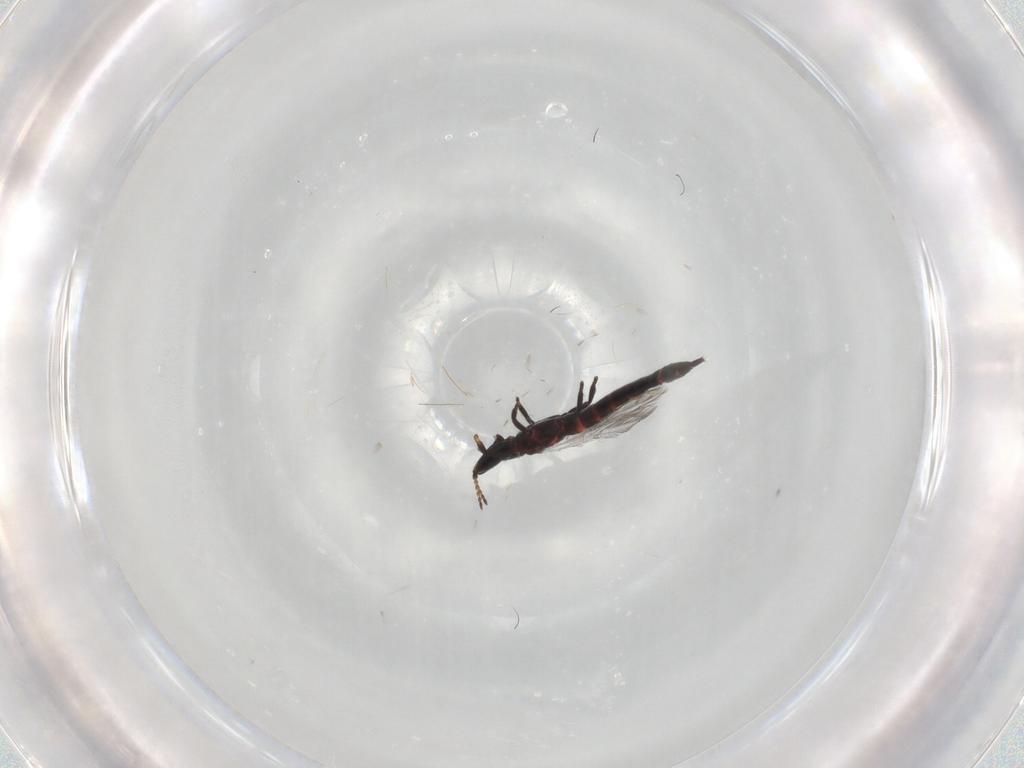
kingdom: Animalia
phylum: Arthropoda
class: Insecta
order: Thysanoptera
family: Phlaeothripidae
